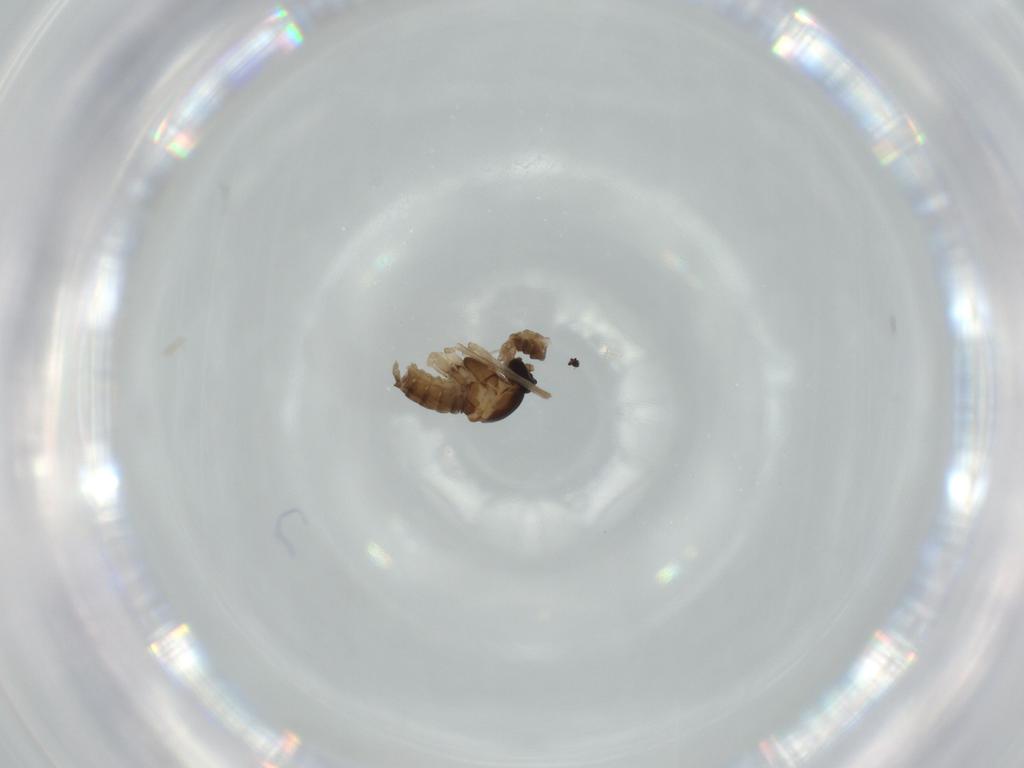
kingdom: Animalia
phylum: Arthropoda
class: Insecta
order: Diptera
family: Cecidomyiidae
